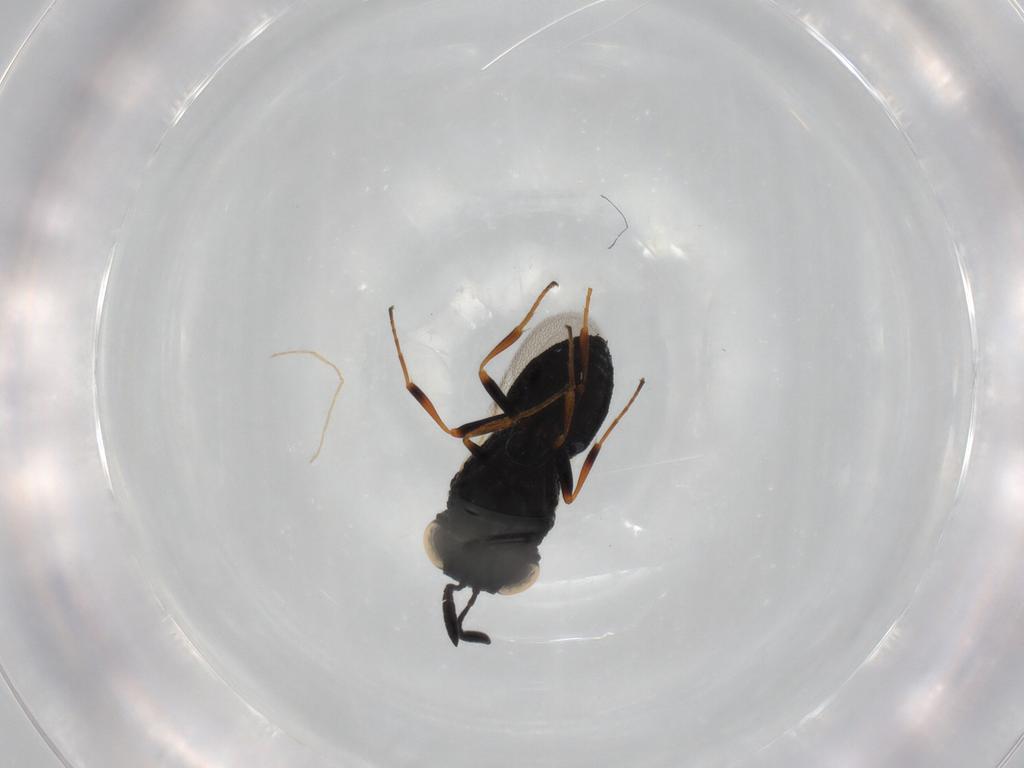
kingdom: Animalia
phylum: Arthropoda
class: Insecta
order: Hymenoptera
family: Scelionidae
